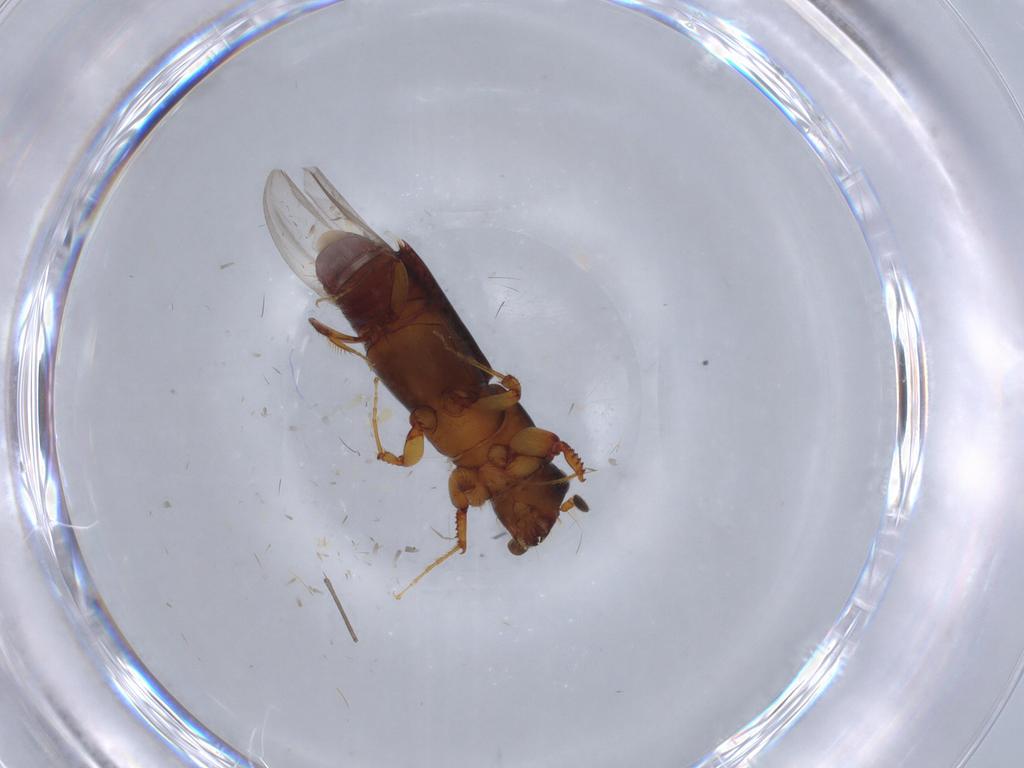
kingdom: Animalia
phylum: Arthropoda
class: Insecta
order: Coleoptera
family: Curculionidae
